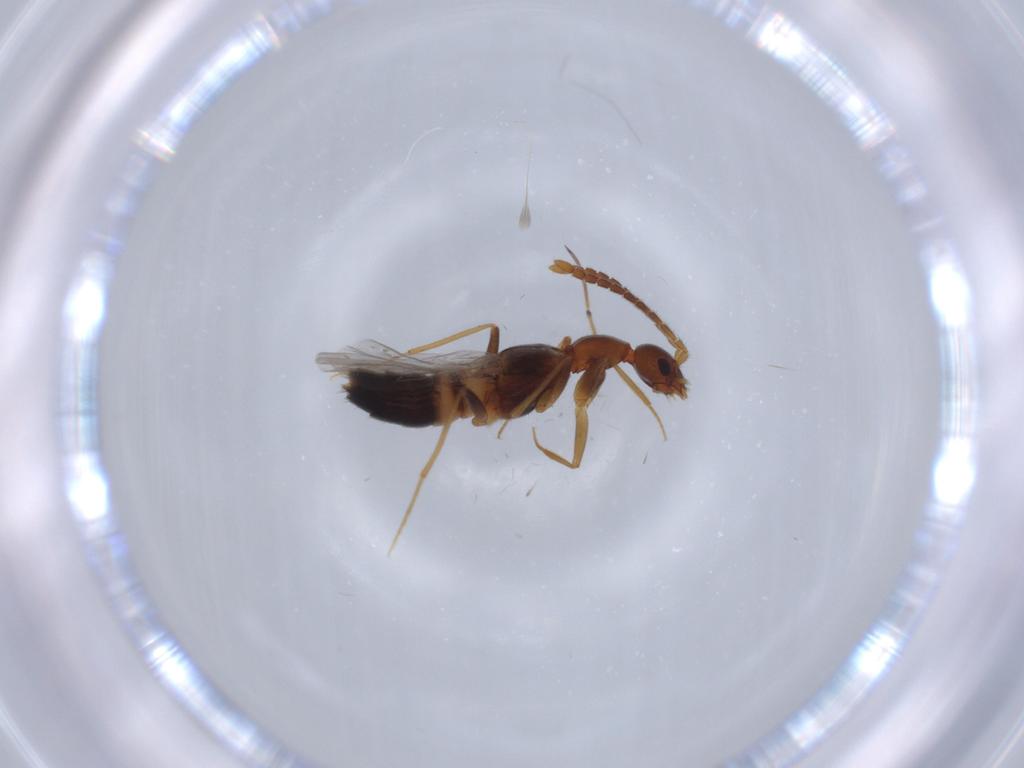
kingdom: Animalia
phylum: Arthropoda
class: Insecta
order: Coleoptera
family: Staphylinidae
